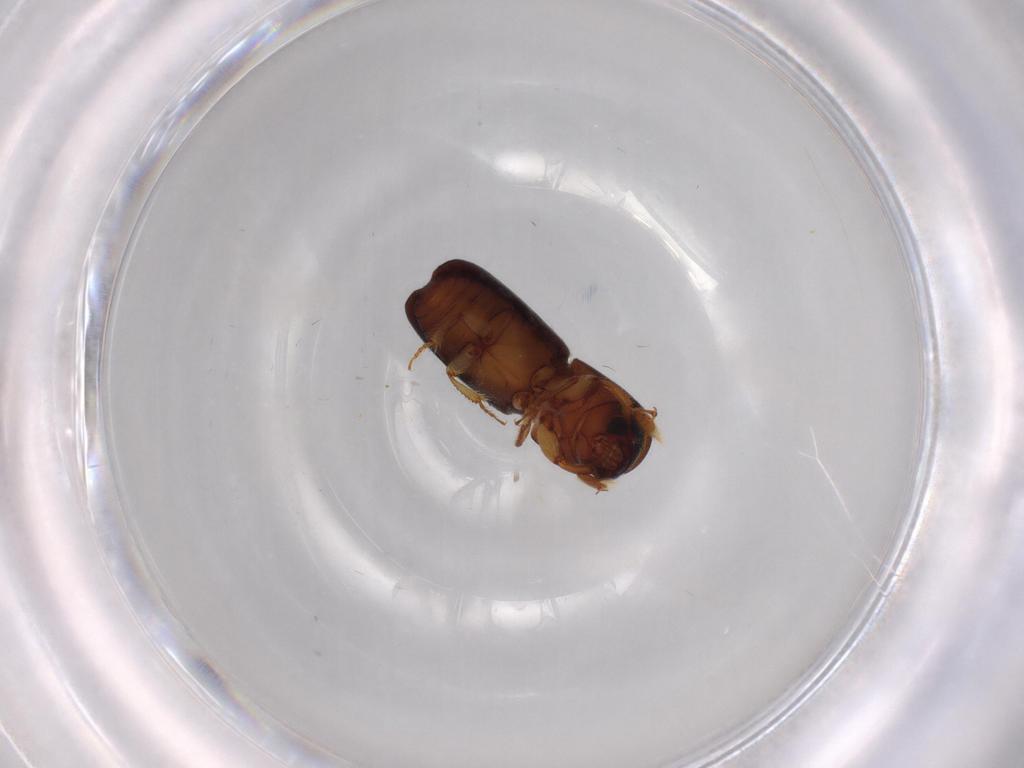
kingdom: Animalia
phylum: Arthropoda
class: Insecta
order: Coleoptera
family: Curculionidae
